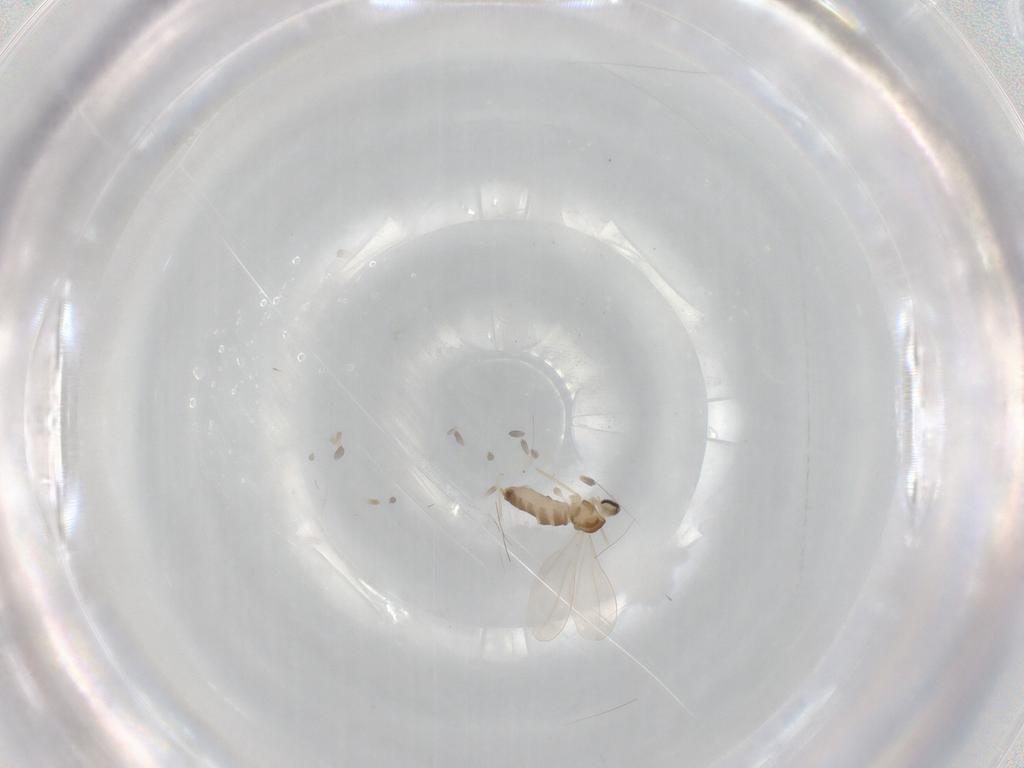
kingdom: Animalia
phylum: Arthropoda
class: Insecta
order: Diptera
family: Cecidomyiidae
